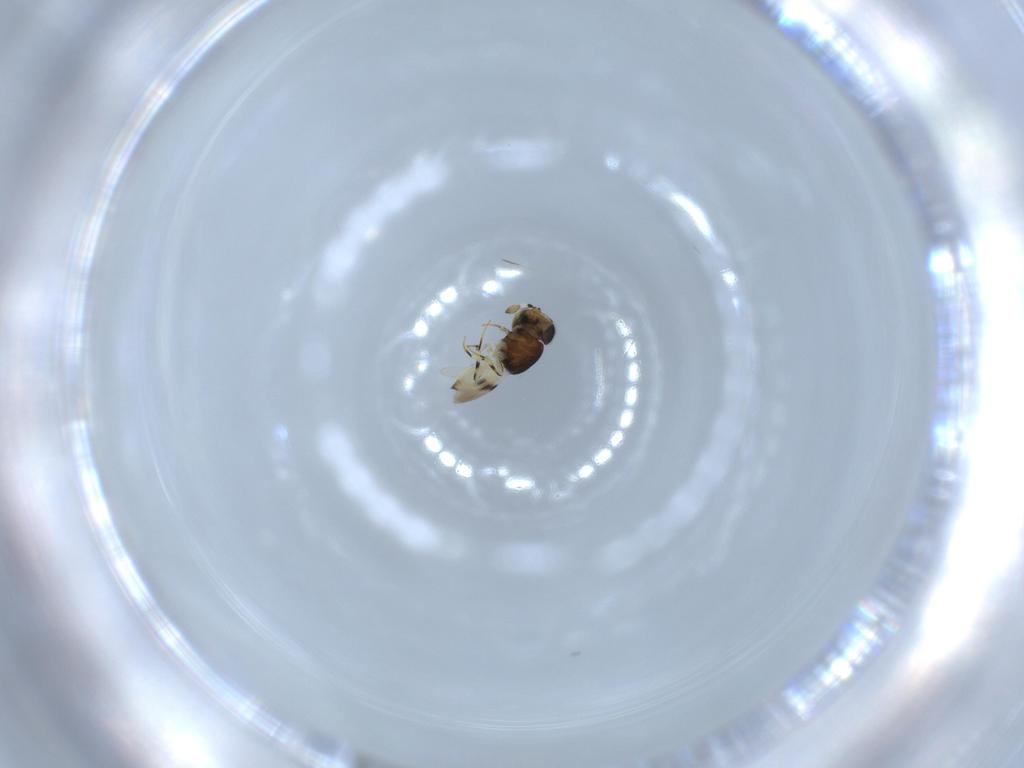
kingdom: Animalia
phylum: Arthropoda
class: Insecta
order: Hymenoptera
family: Scelionidae
